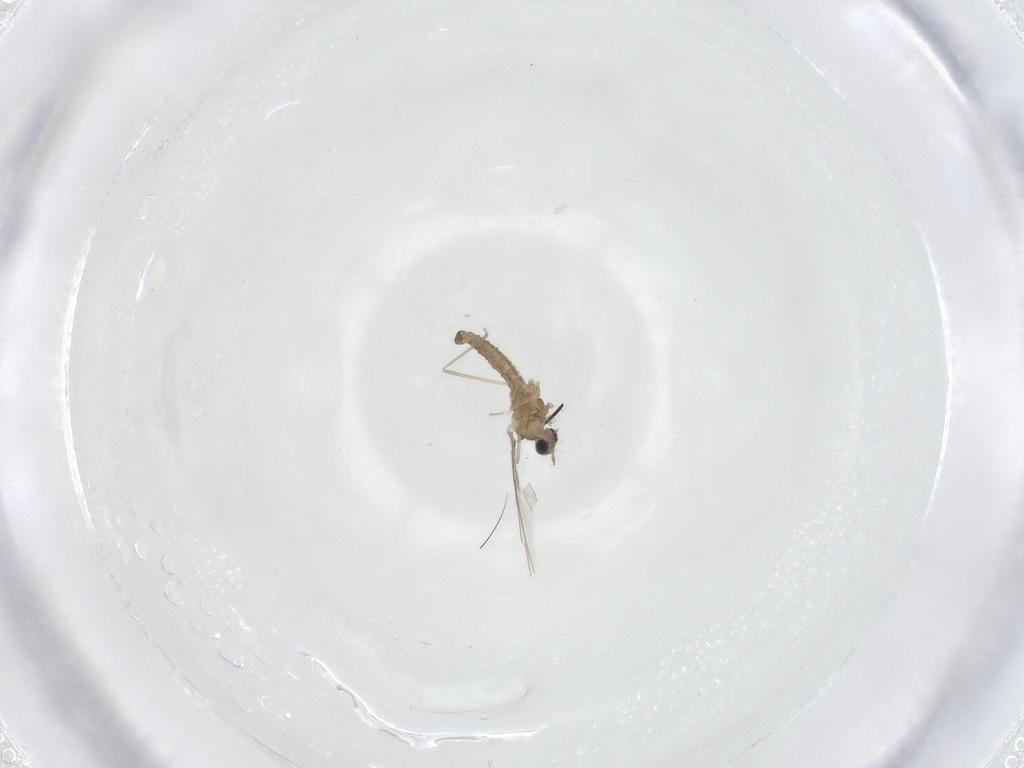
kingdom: Animalia
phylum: Arthropoda
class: Insecta
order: Diptera
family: Cecidomyiidae
